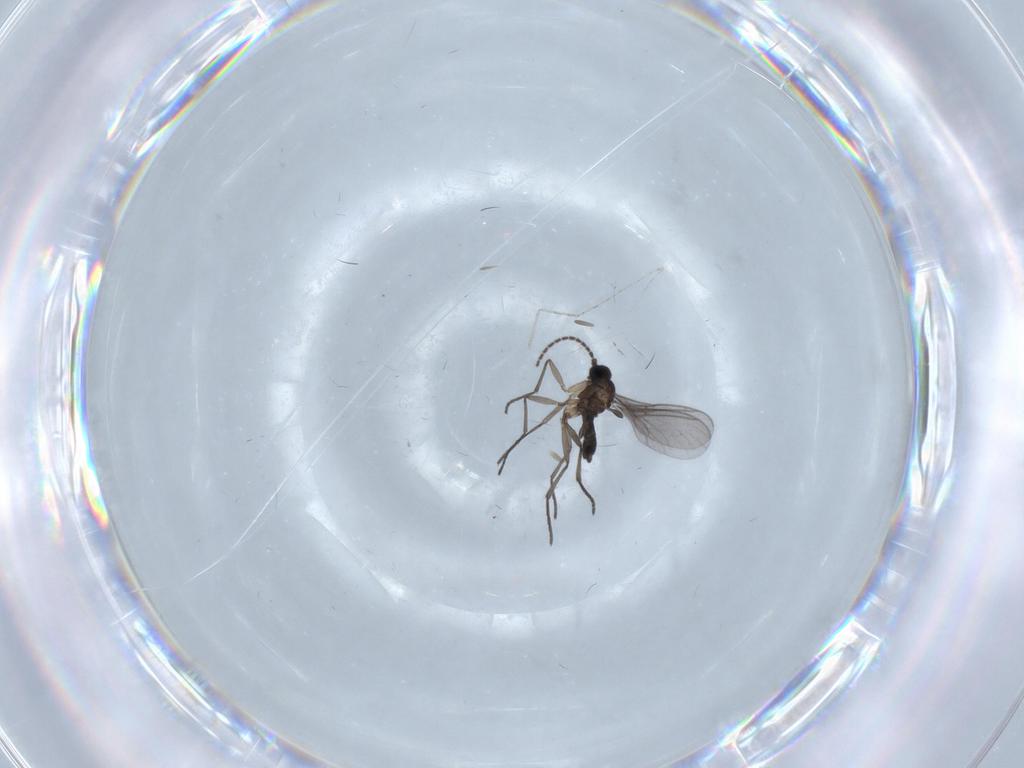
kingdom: Animalia
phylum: Arthropoda
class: Insecta
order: Diptera
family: Sciaridae
